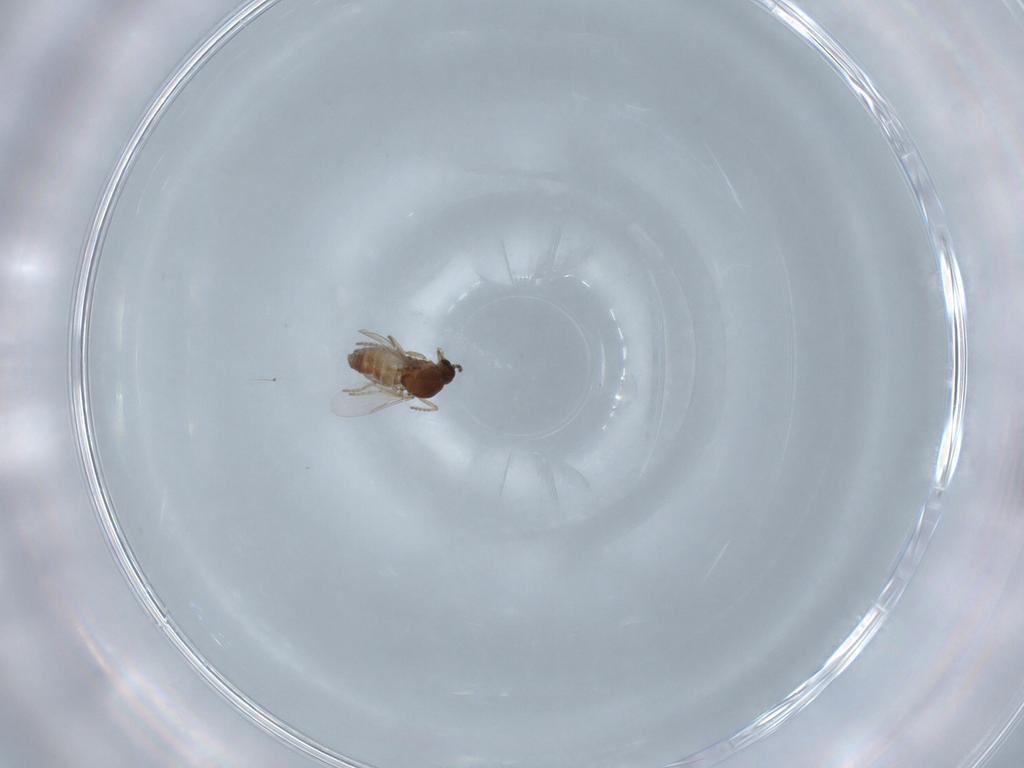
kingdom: Animalia
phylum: Arthropoda
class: Insecta
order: Diptera
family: Ceratopogonidae
